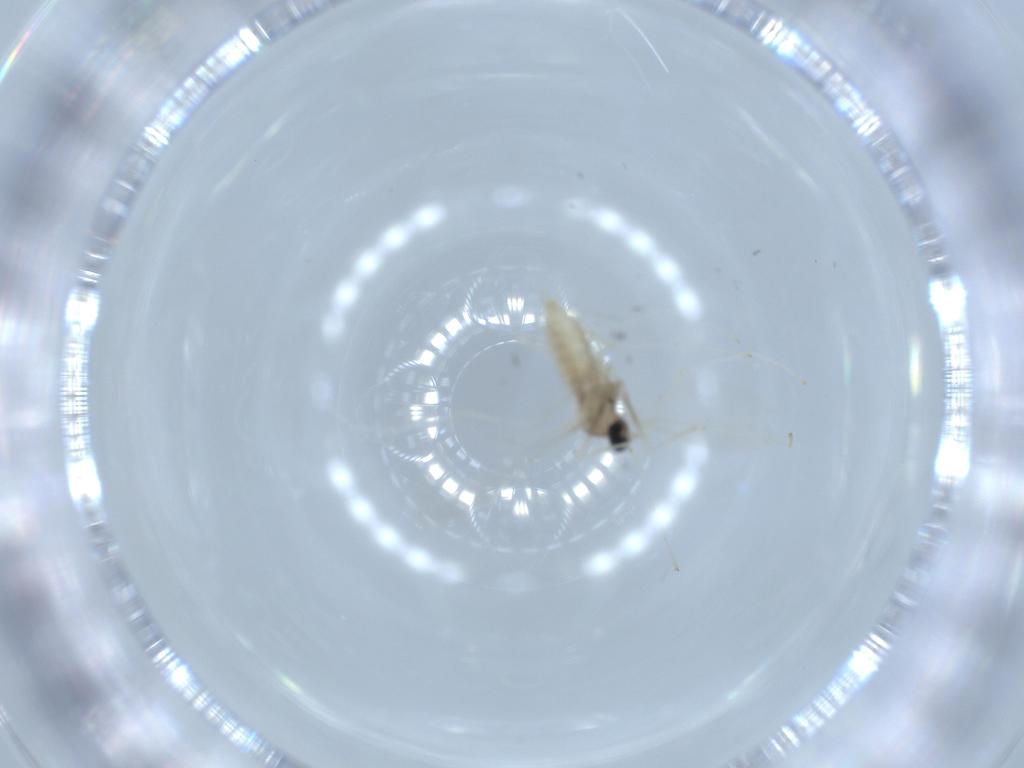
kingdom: Animalia
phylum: Arthropoda
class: Insecta
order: Diptera
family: Cecidomyiidae
